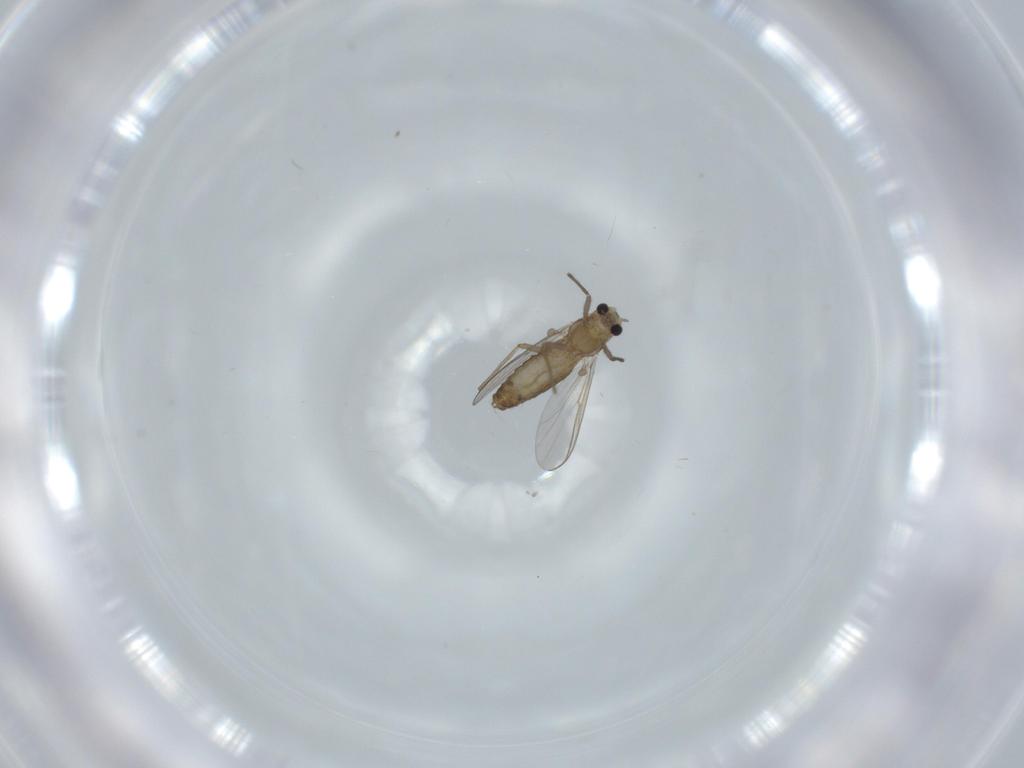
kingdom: Animalia
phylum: Arthropoda
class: Insecta
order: Diptera
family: Chironomidae
